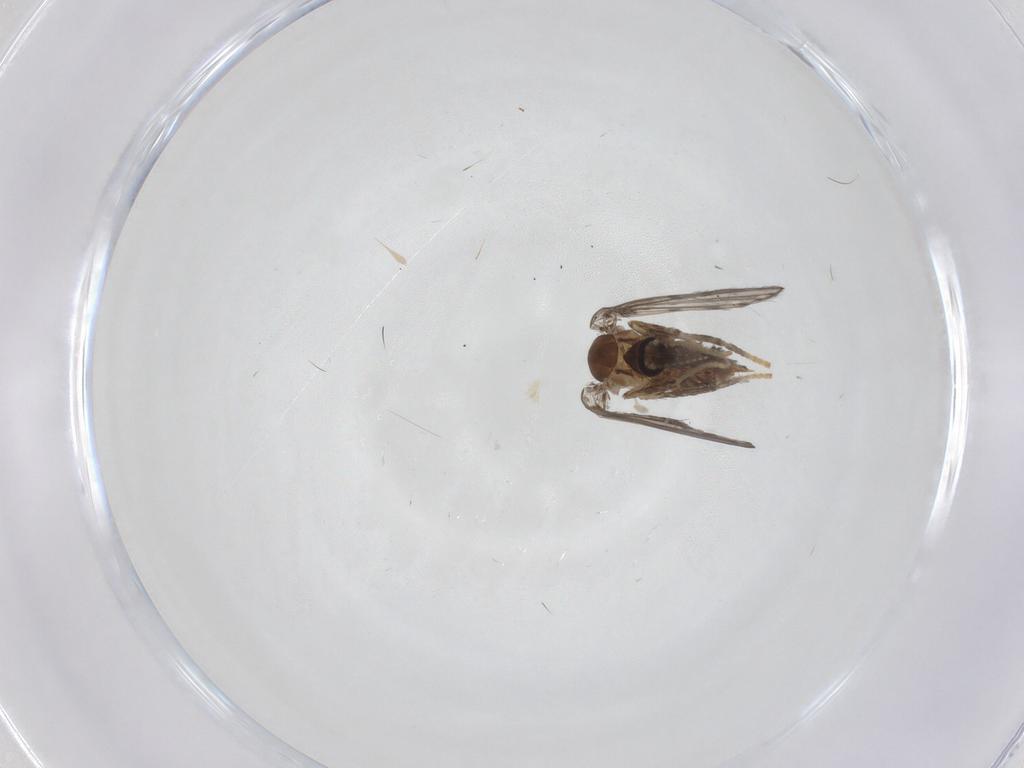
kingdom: Animalia
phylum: Arthropoda
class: Insecta
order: Diptera
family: Psychodidae
